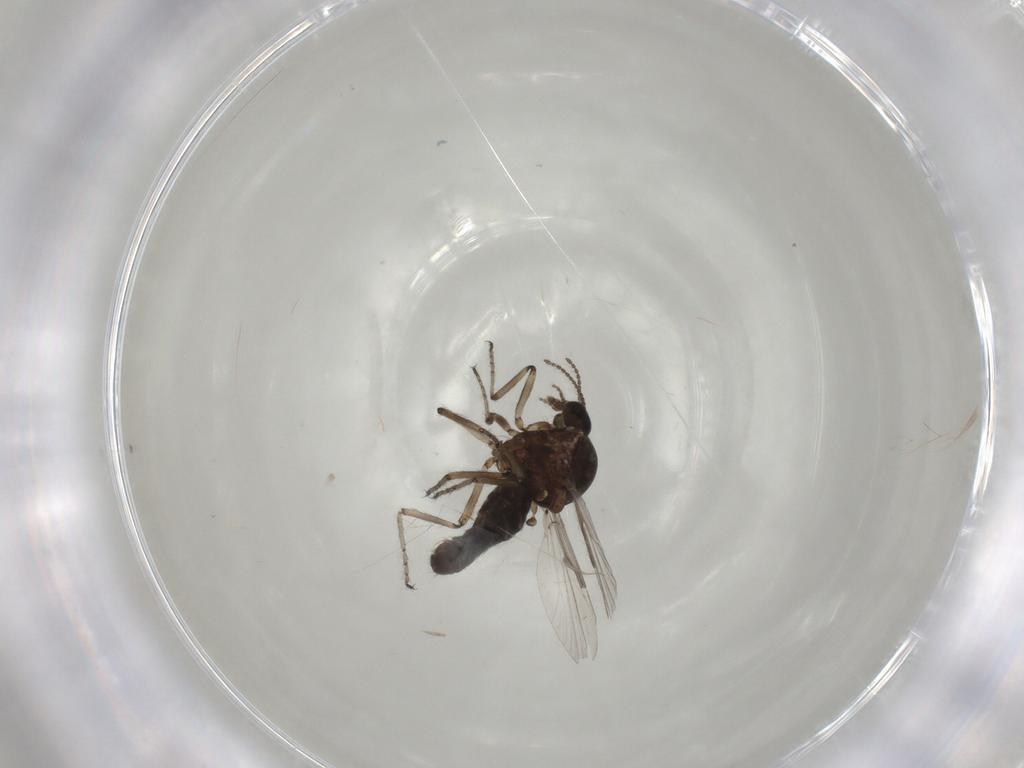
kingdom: Animalia
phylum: Arthropoda
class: Insecta
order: Diptera
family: Ceratopogonidae
